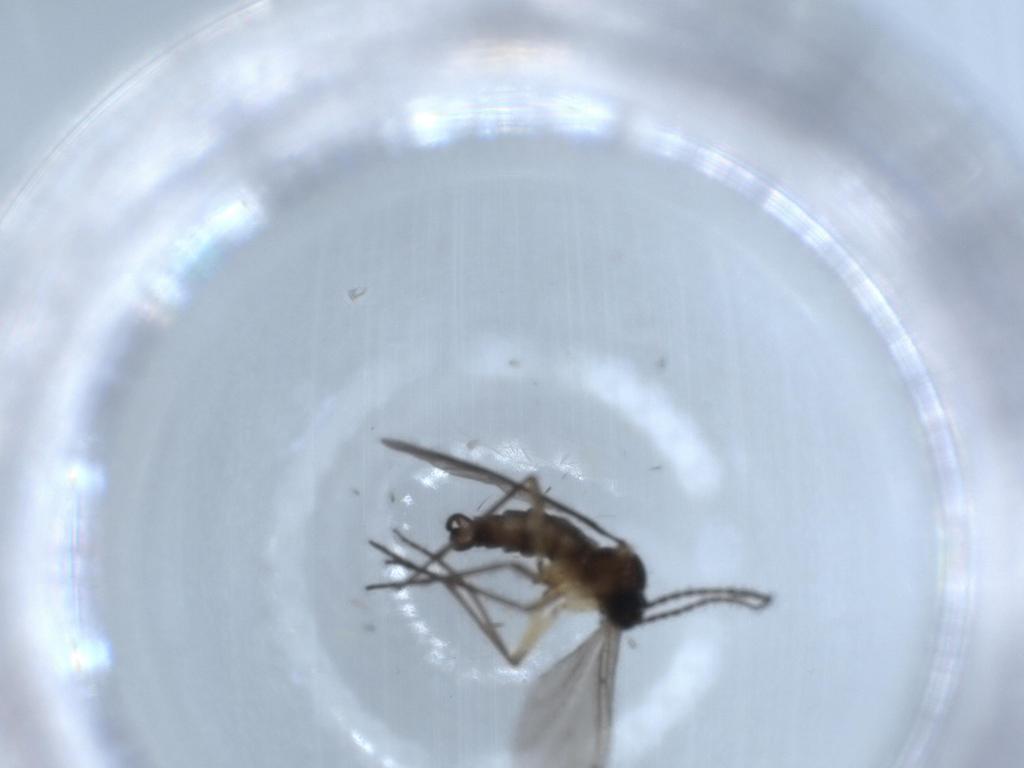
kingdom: Animalia
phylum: Arthropoda
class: Insecta
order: Diptera
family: Sciaridae
